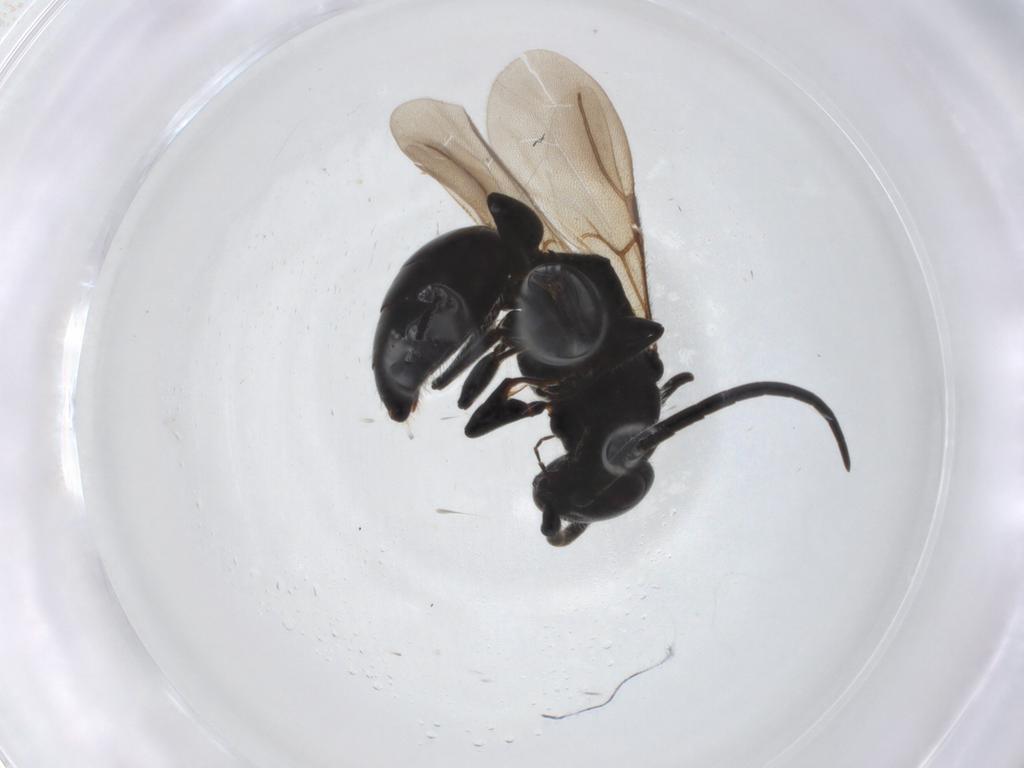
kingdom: Animalia
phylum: Arthropoda
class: Insecta
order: Hymenoptera
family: Bethylidae
